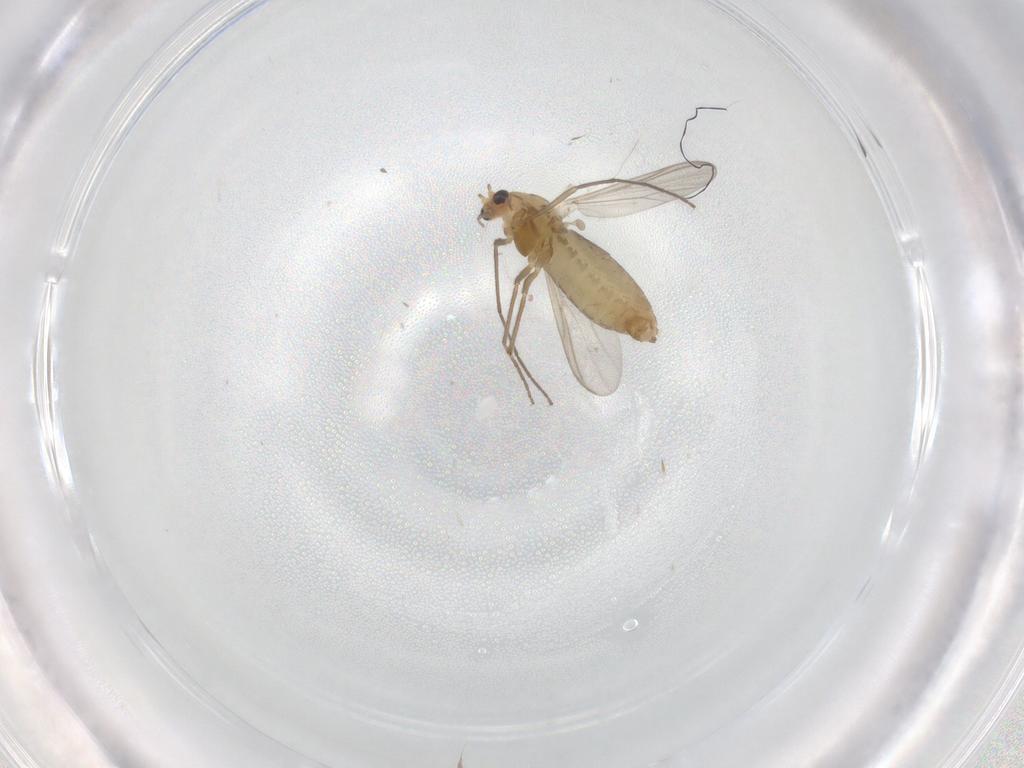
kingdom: Animalia
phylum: Arthropoda
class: Insecta
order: Diptera
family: Chironomidae
